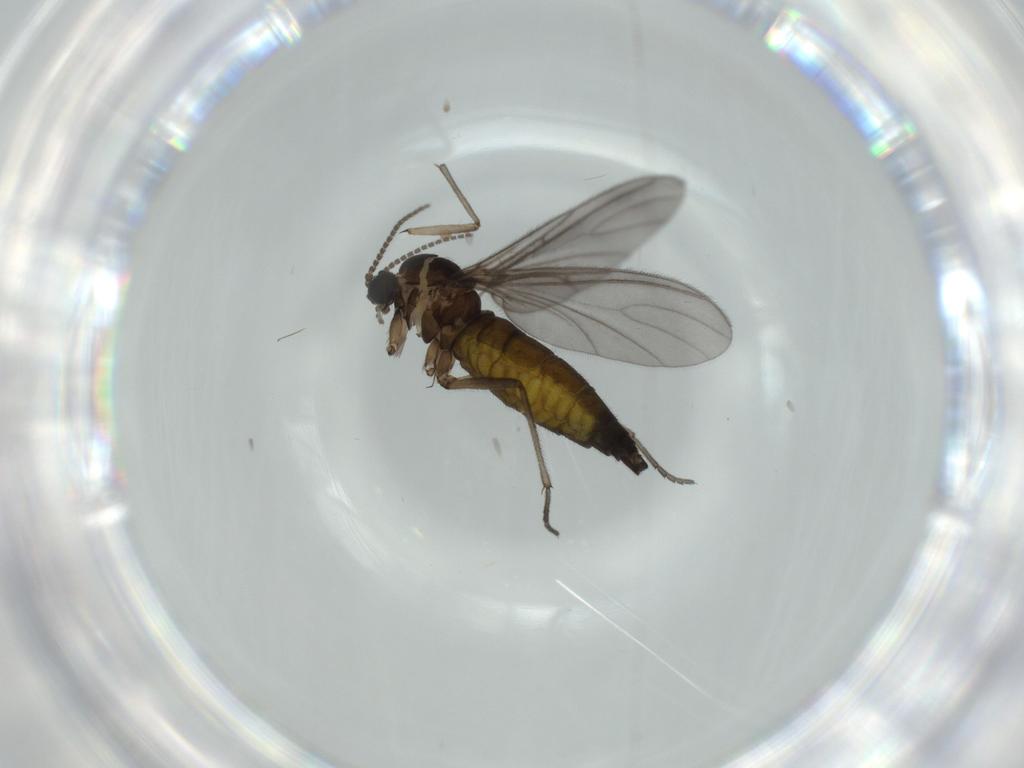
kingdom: Animalia
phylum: Arthropoda
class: Insecta
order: Diptera
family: Sciaridae
